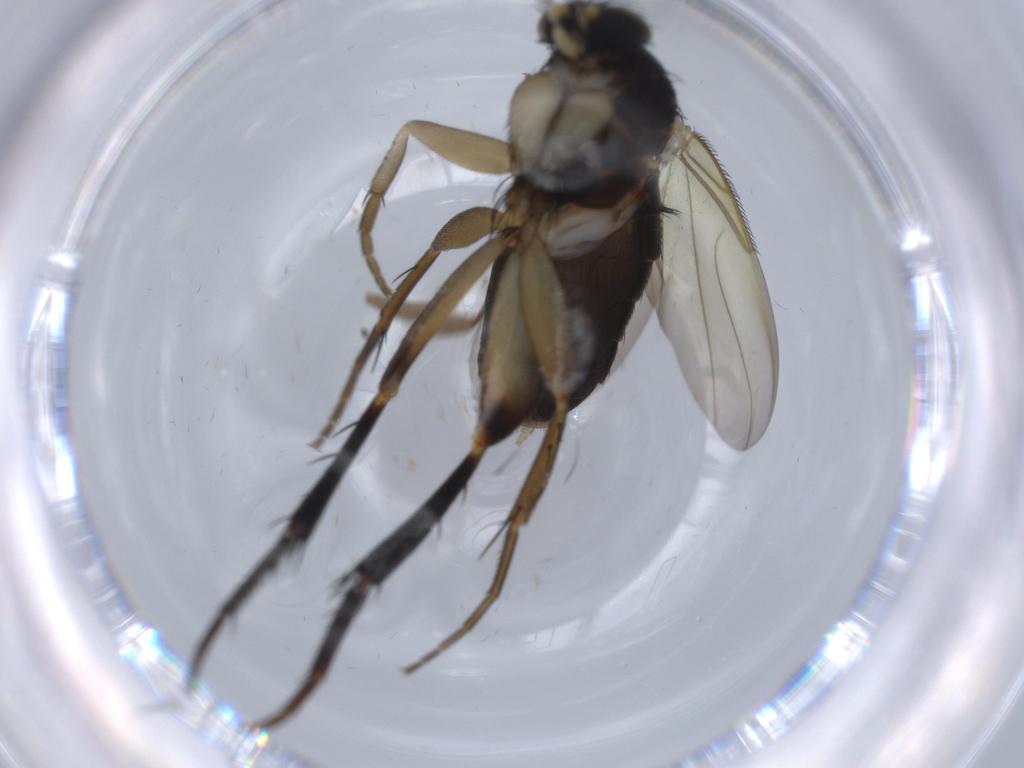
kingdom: Animalia
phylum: Arthropoda
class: Insecta
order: Diptera
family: Phoridae
